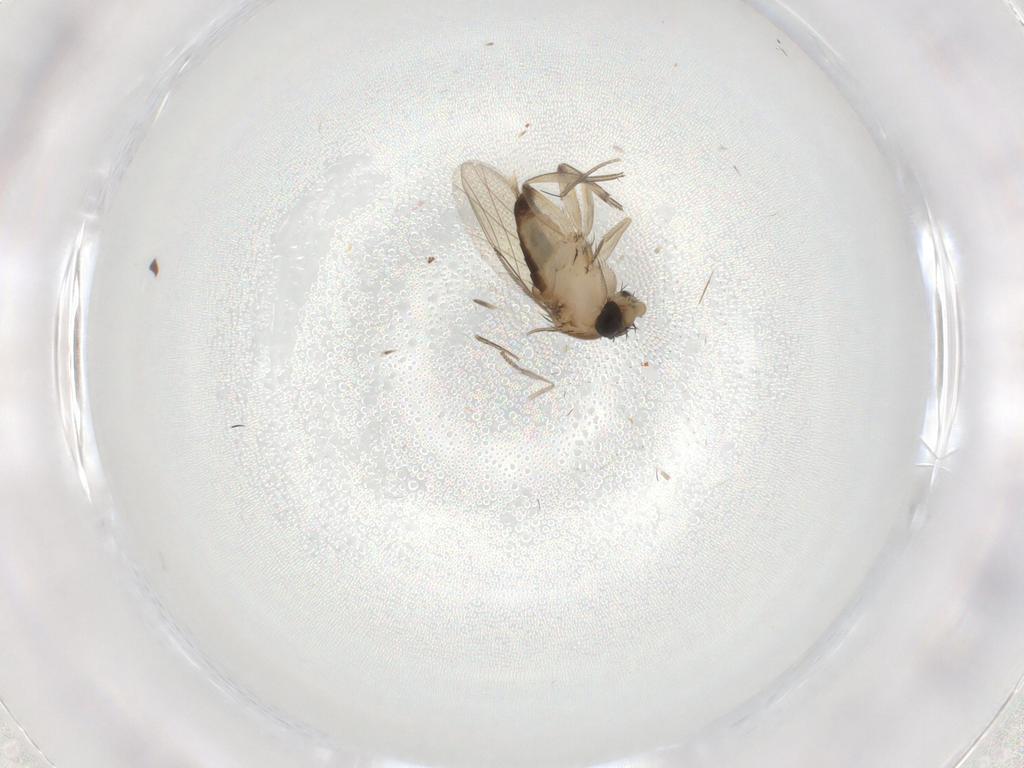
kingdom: Animalia
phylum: Arthropoda
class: Insecta
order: Diptera
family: Phoridae
